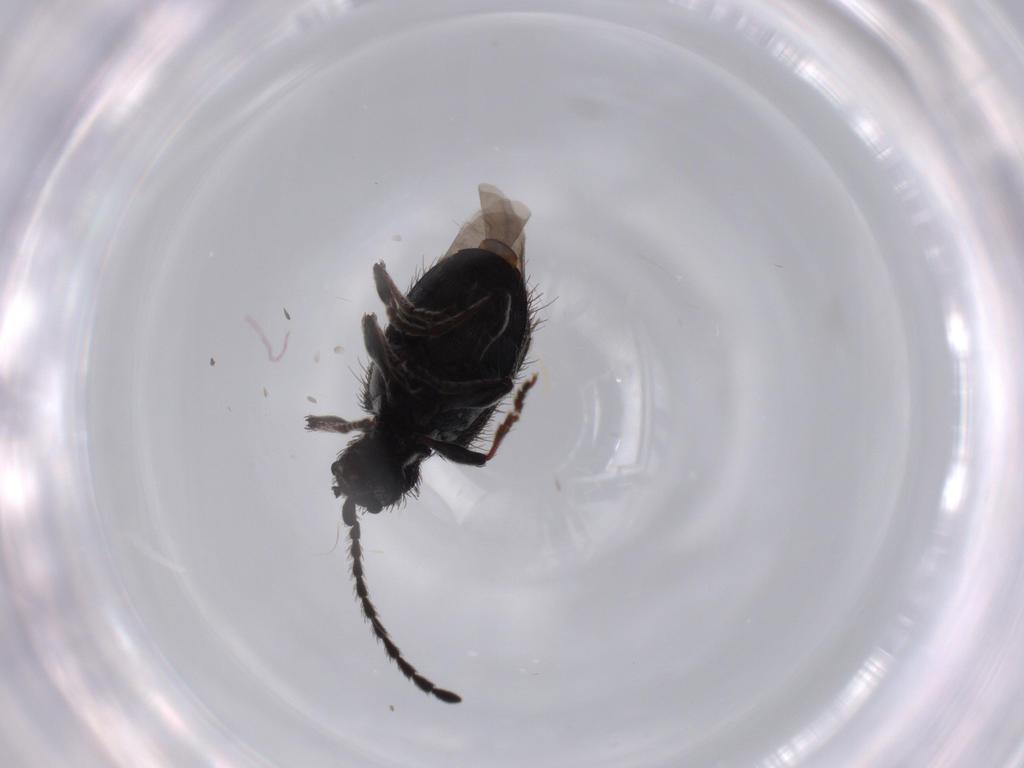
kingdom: Animalia
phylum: Arthropoda
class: Insecta
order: Coleoptera
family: Ptinidae
